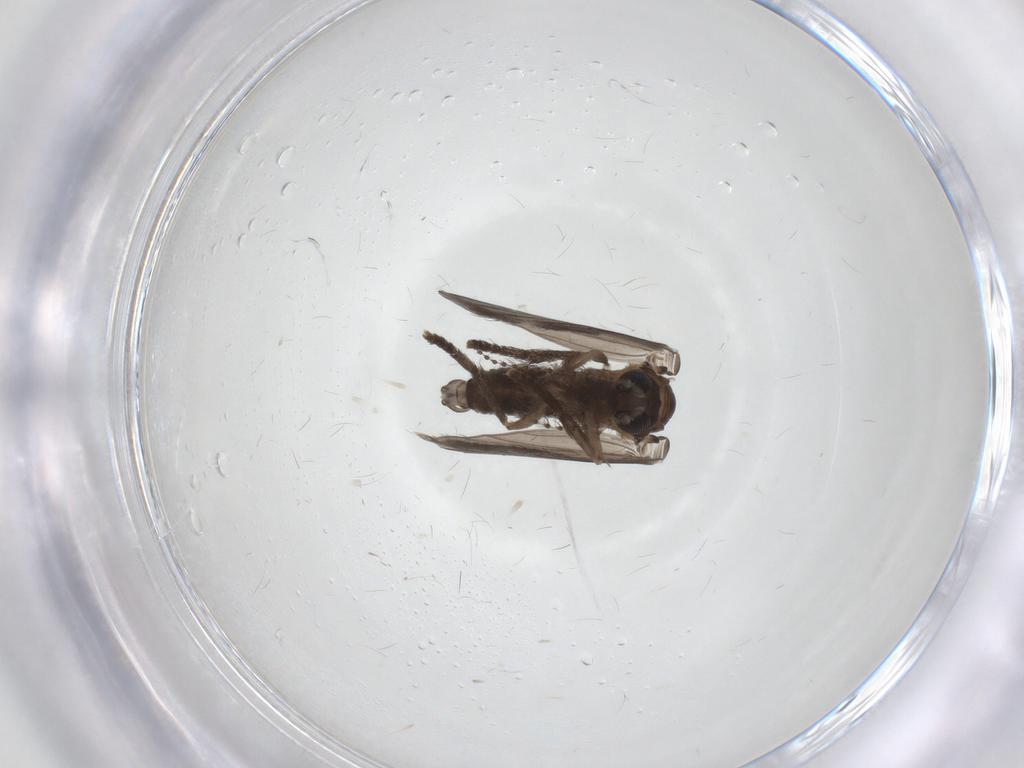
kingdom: Animalia
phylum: Arthropoda
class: Insecta
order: Diptera
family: Psychodidae
